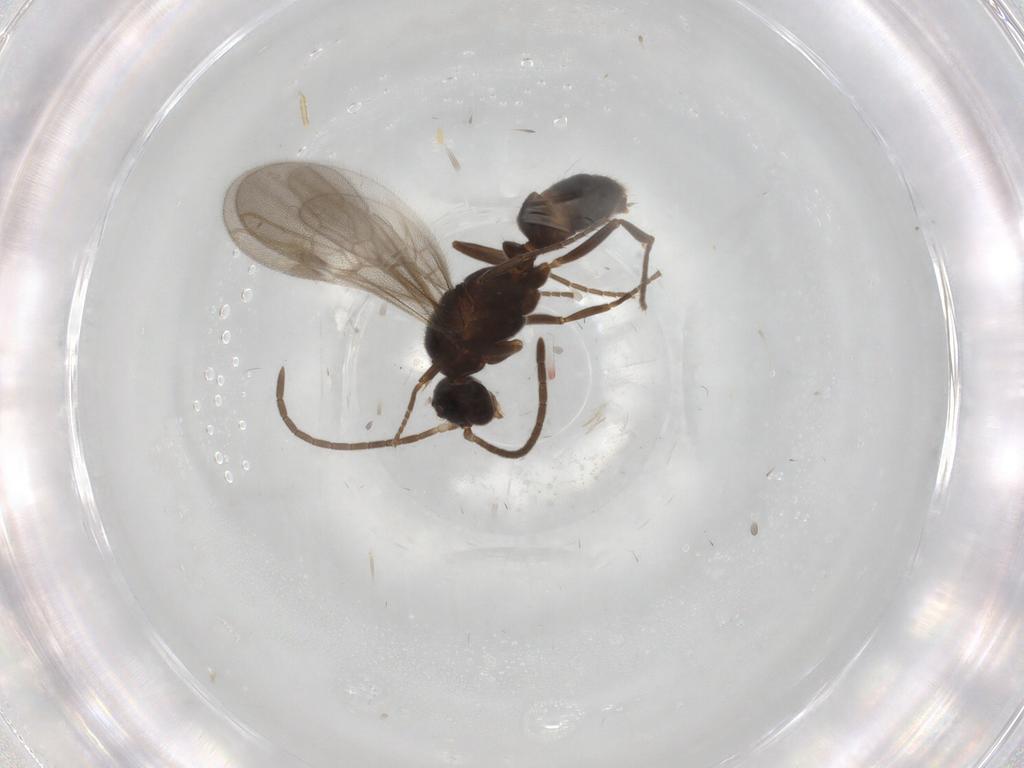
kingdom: Animalia
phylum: Arthropoda
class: Insecta
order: Hymenoptera
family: Formicidae
